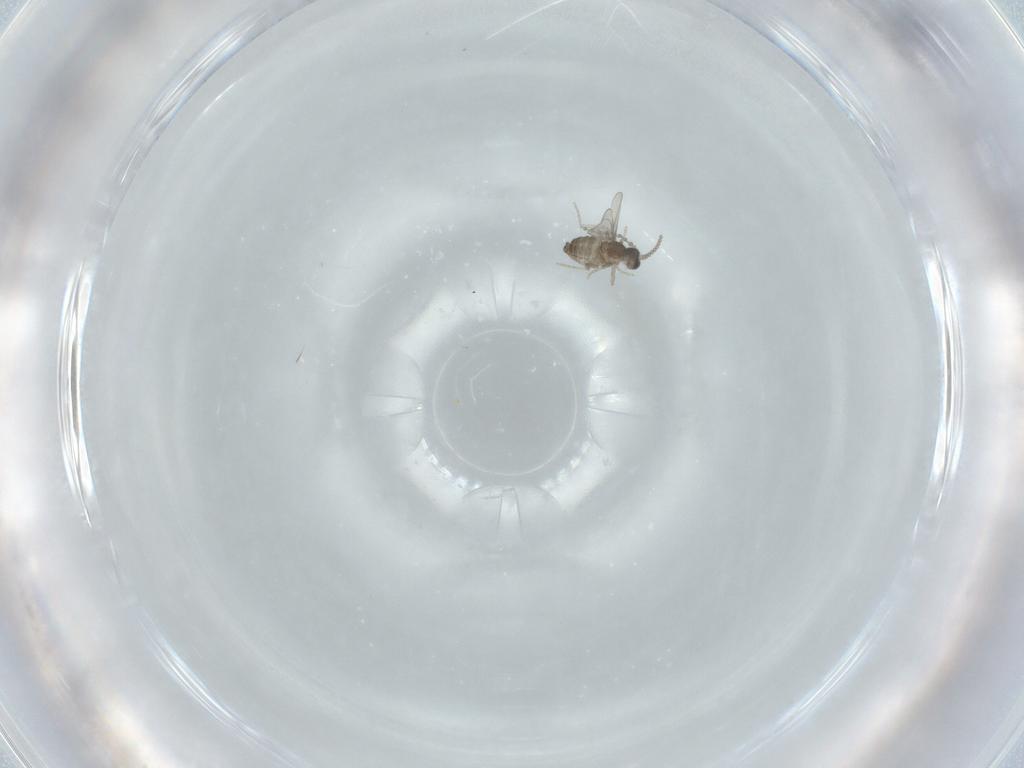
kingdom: Animalia
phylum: Arthropoda
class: Insecta
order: Diptera
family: Cecidomyiidae
